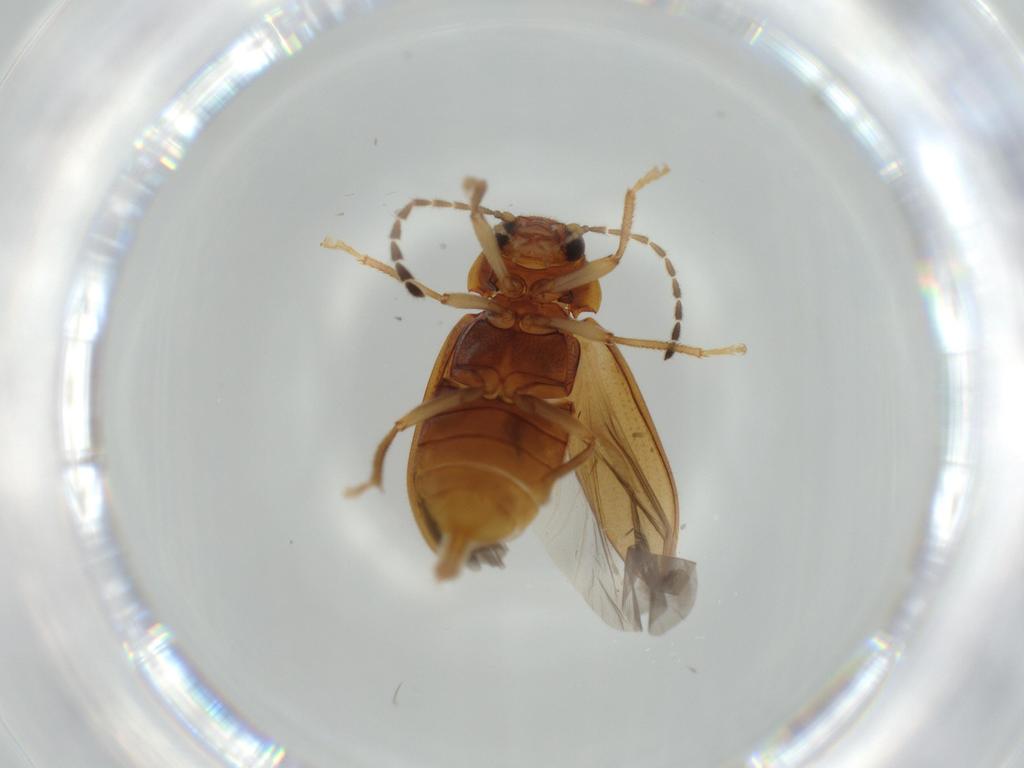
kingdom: Animalia
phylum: Arthropoda
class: Insecta
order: Coleoptera
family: Ptilodactylidae
